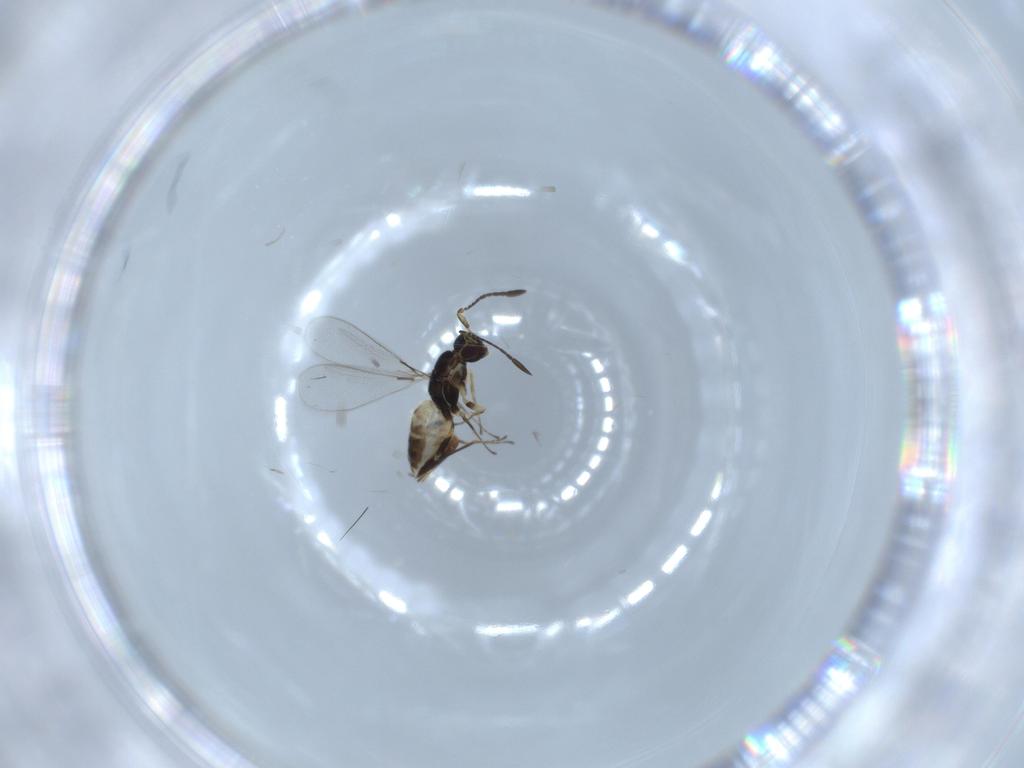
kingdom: Animalia
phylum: Arthropoda
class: Insecta
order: Hymenoptera
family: Mymaridae
